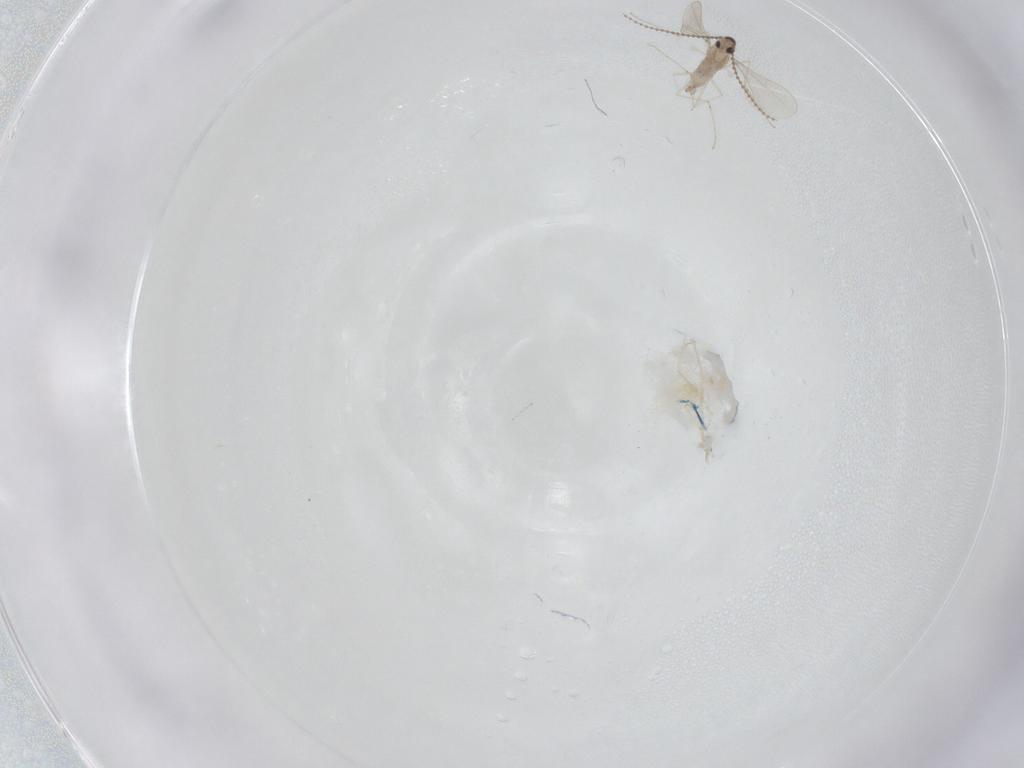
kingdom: Animalia
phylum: Arthropoda
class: Insecta
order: Diptera
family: Cecidomyiidae
